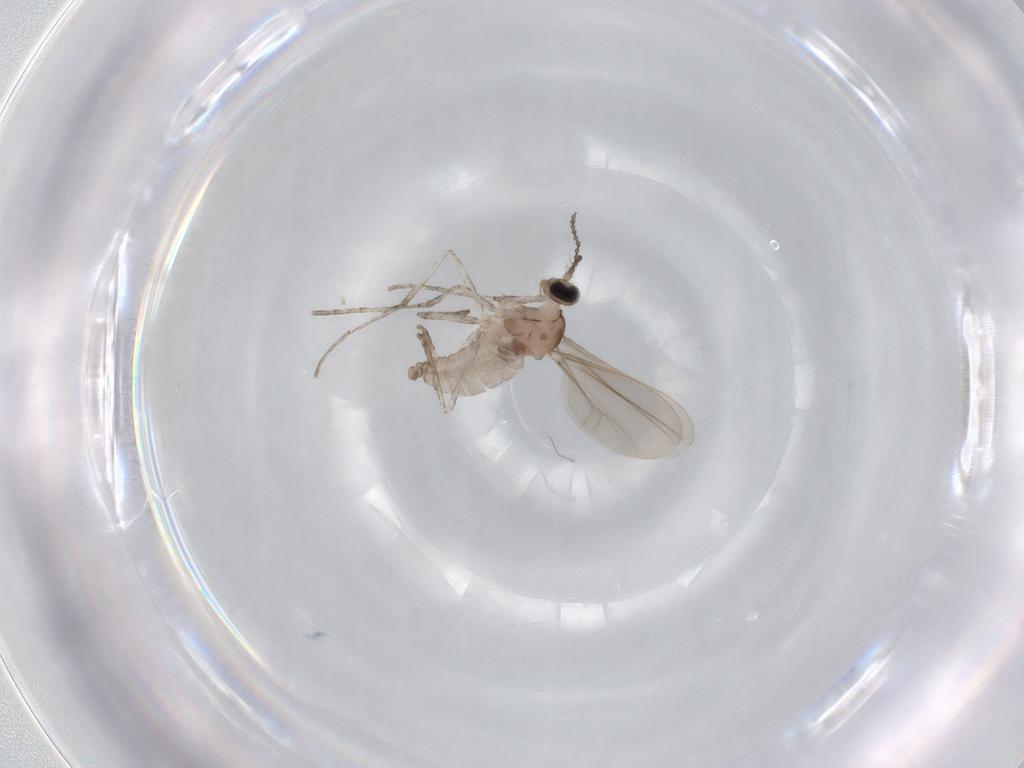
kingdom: Animalia
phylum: Arthropoda
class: Insecta
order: Diptera
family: Cecidomyiidae
